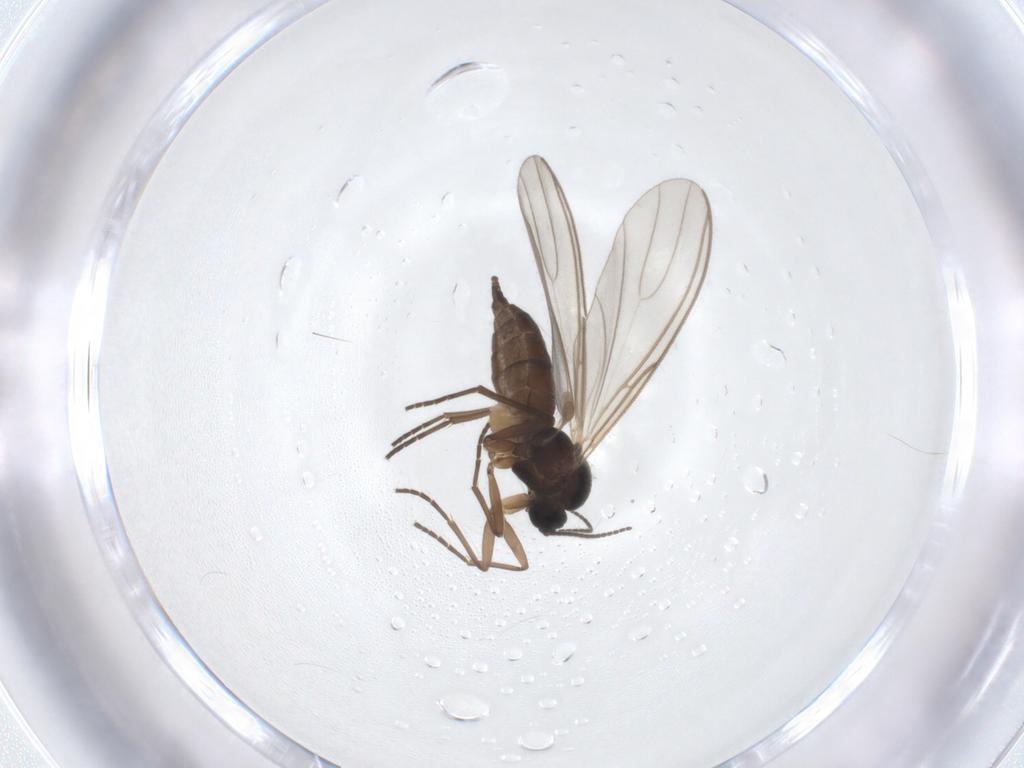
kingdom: Animalia
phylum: Arthropoda
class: Insecta
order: Diptera
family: Sciaridae
